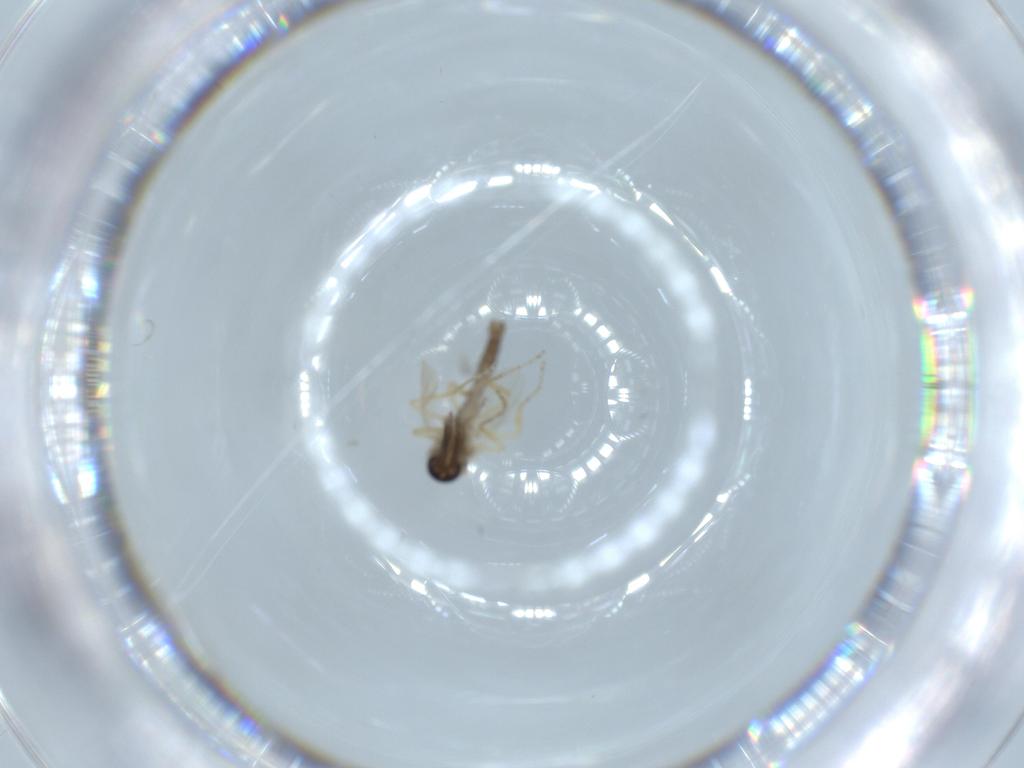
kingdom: Animalia
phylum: Arthropoda
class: Insecta
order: Diptera
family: Ceratopogonidae
